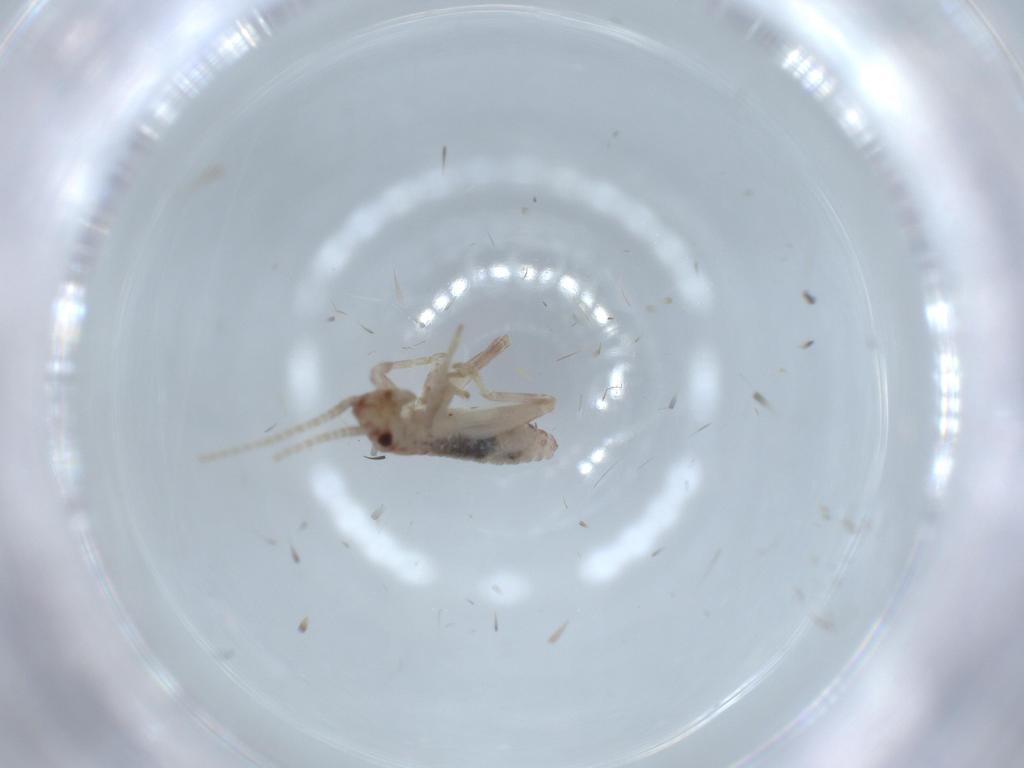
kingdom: Animalia
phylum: Arthropoda
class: Insecta
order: Orthoptera
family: Mogoplistidae
